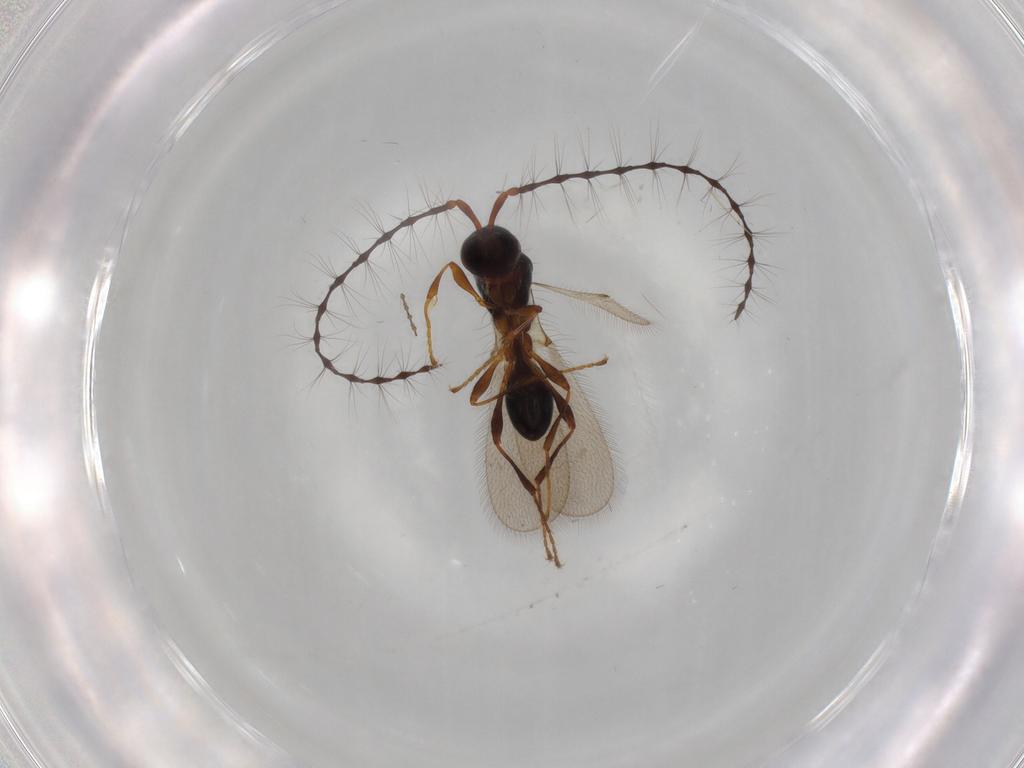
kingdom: Animalia
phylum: Arthropoda
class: Insecta
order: Hymenoptera
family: Diapriidae
